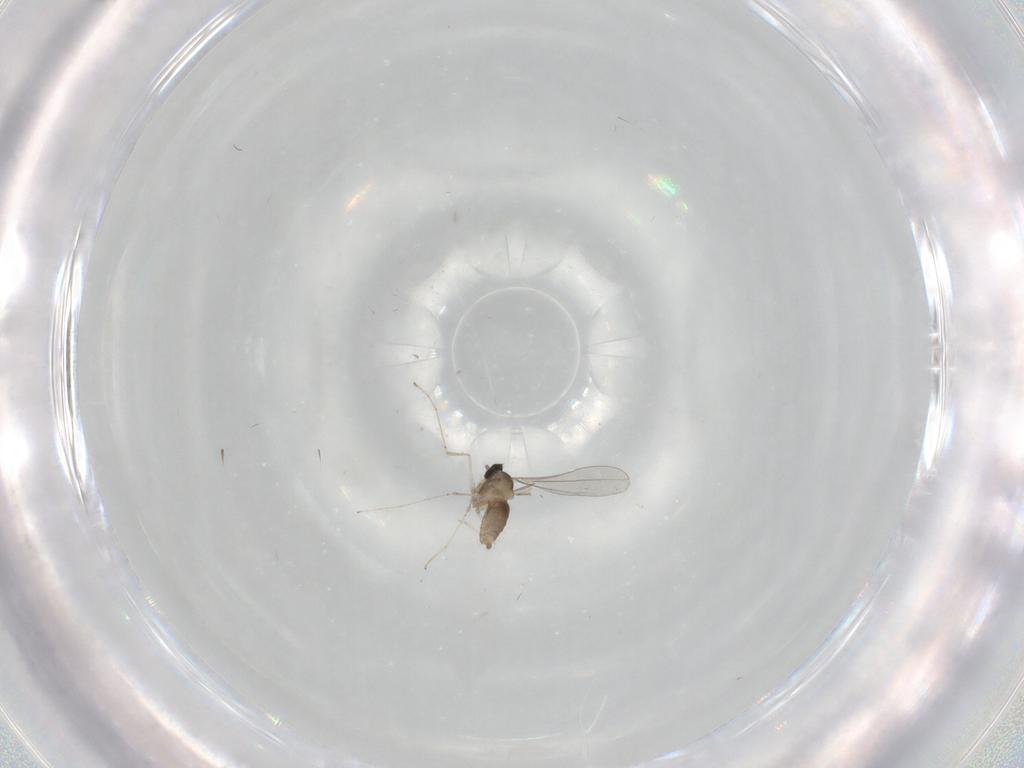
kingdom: Animalia
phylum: Arthropoda
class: Insecta
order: Diptera
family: Cecidomyiidae
